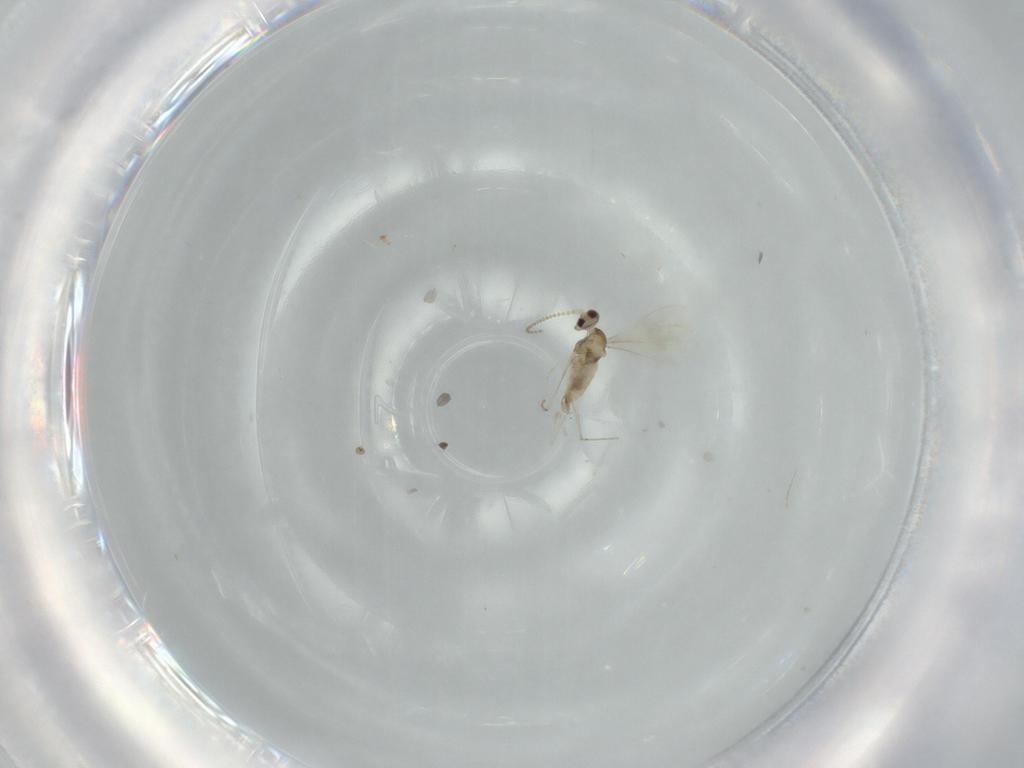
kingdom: Animalia
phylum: Arthropoda
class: Insecta
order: Diptera
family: Cecidomyiidae
